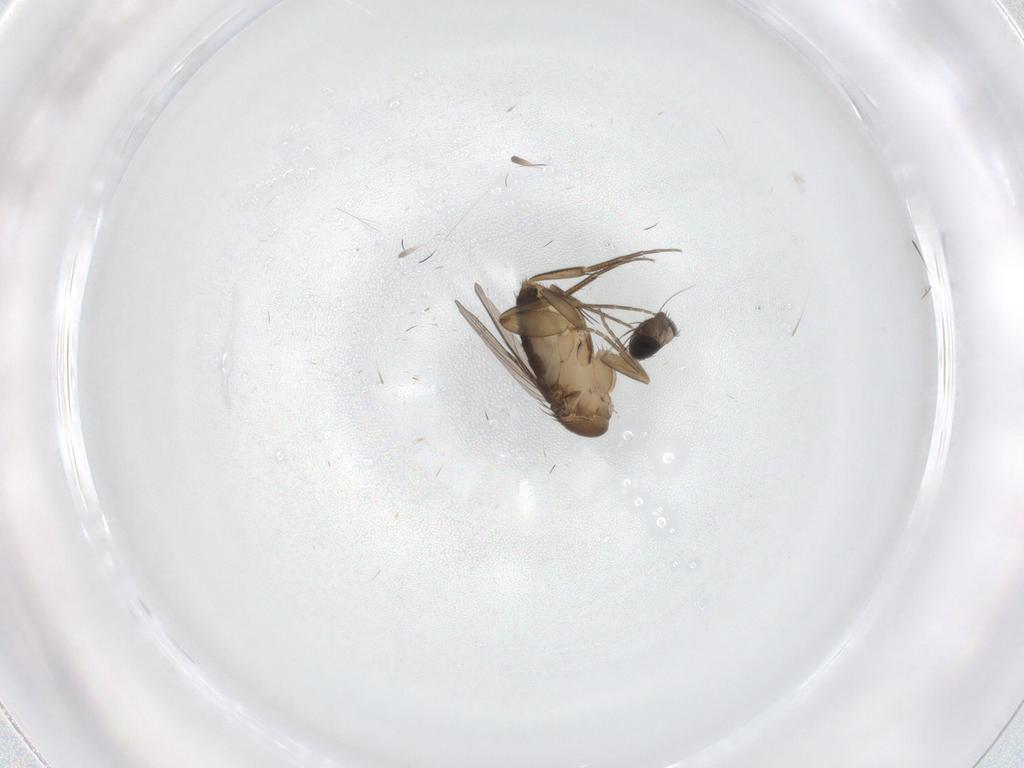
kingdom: Animalia
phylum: Arthropoda
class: Insecta
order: Diptera
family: Phoridae
